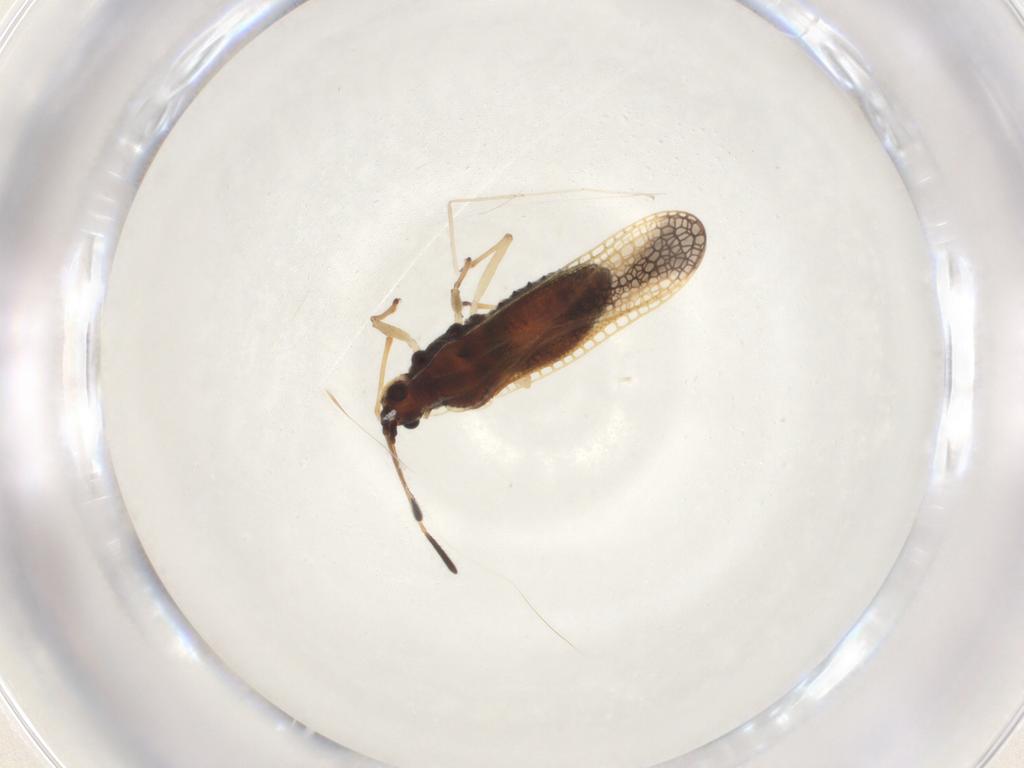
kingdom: Animalia
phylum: Arthropoda
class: Insecta
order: Hemiptera
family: Tingidae
